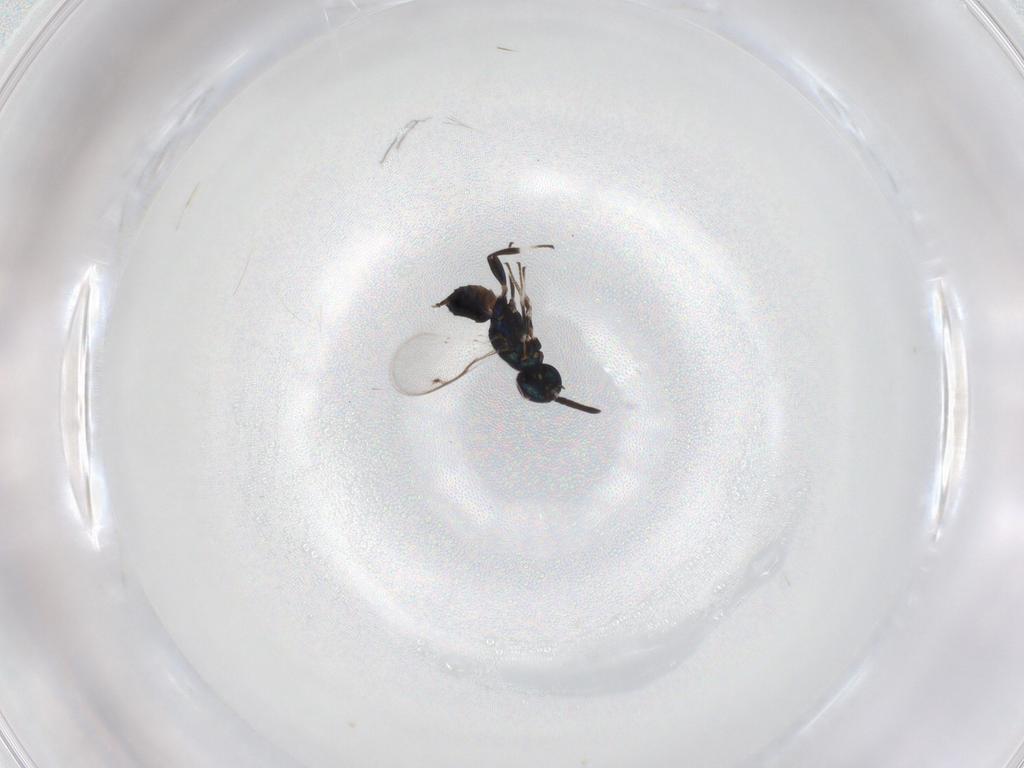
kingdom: Animalia
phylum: Arthropoda
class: Insecta
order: Hymenoptera
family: Eupelmidae
